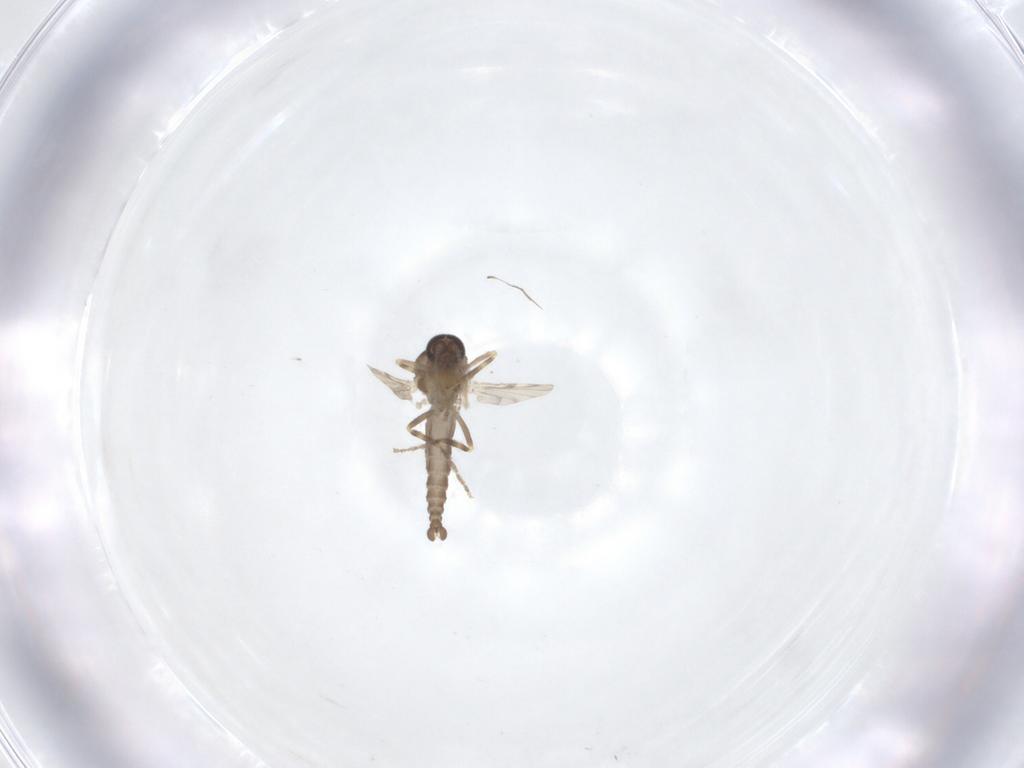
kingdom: Animalia
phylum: Arthropoda
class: Insecta
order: Diptera
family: Ceratopogonidae
